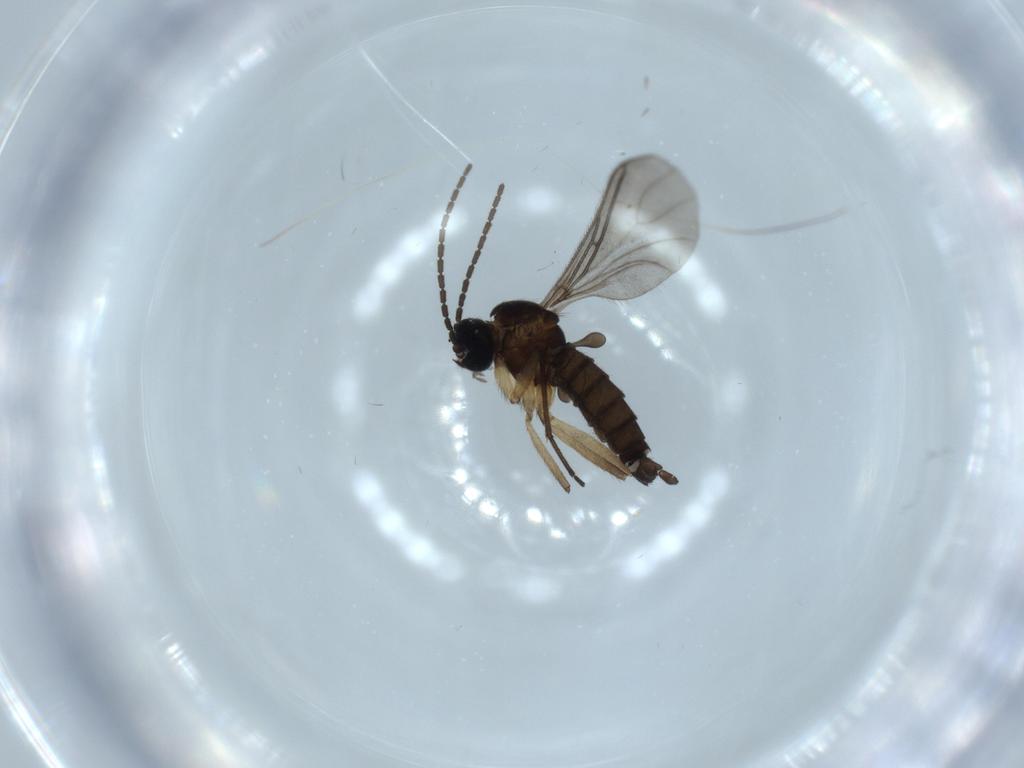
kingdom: Animalia
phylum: Arthropoda
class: Insecta
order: Diptera
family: Sciaridae
